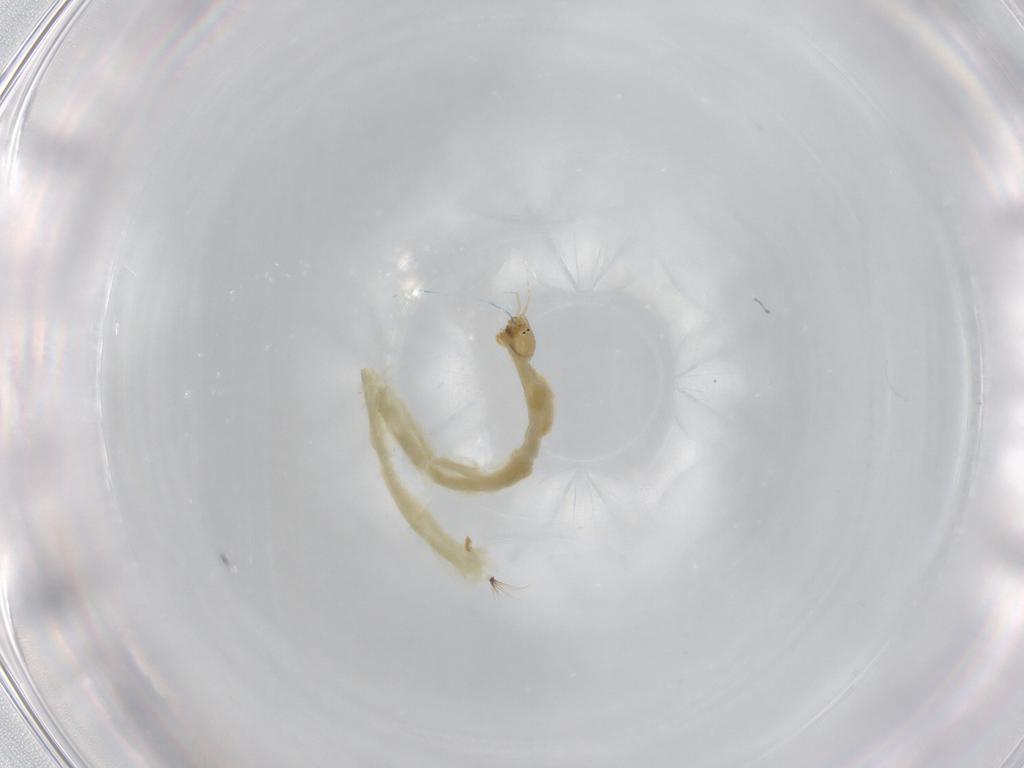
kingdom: Animalia
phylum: Arthropoda
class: Insecta
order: Diptera
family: Chironomidae
